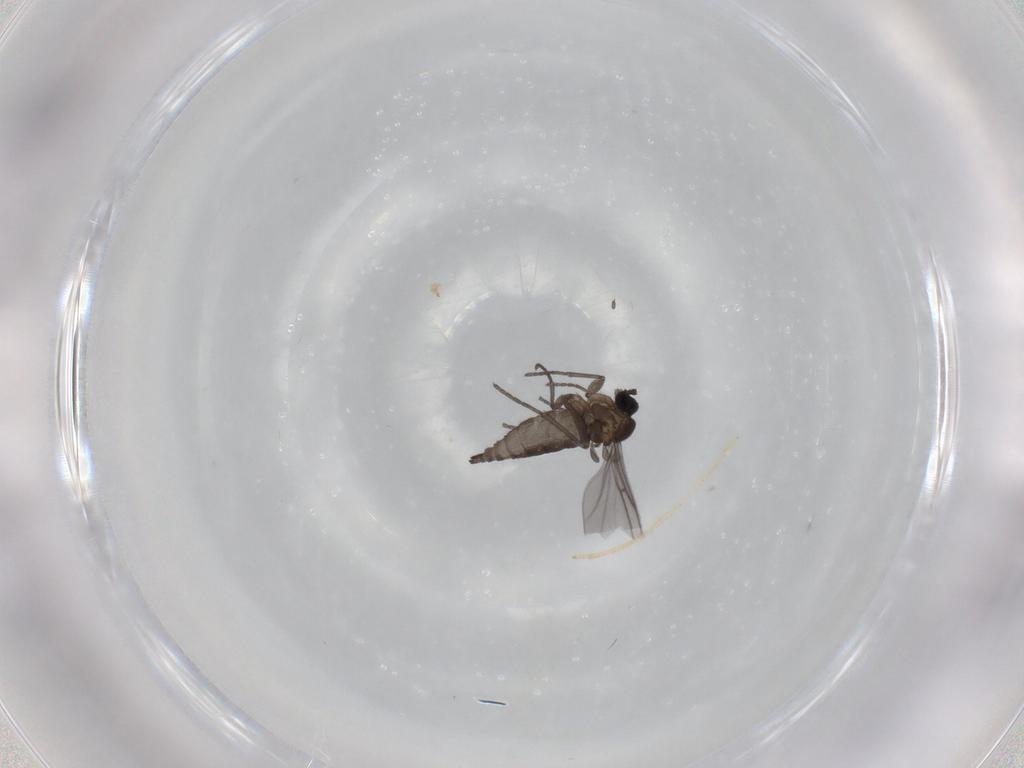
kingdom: Animalia
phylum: Arthropoda
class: Insecta
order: Diptera
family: Chironomidae
